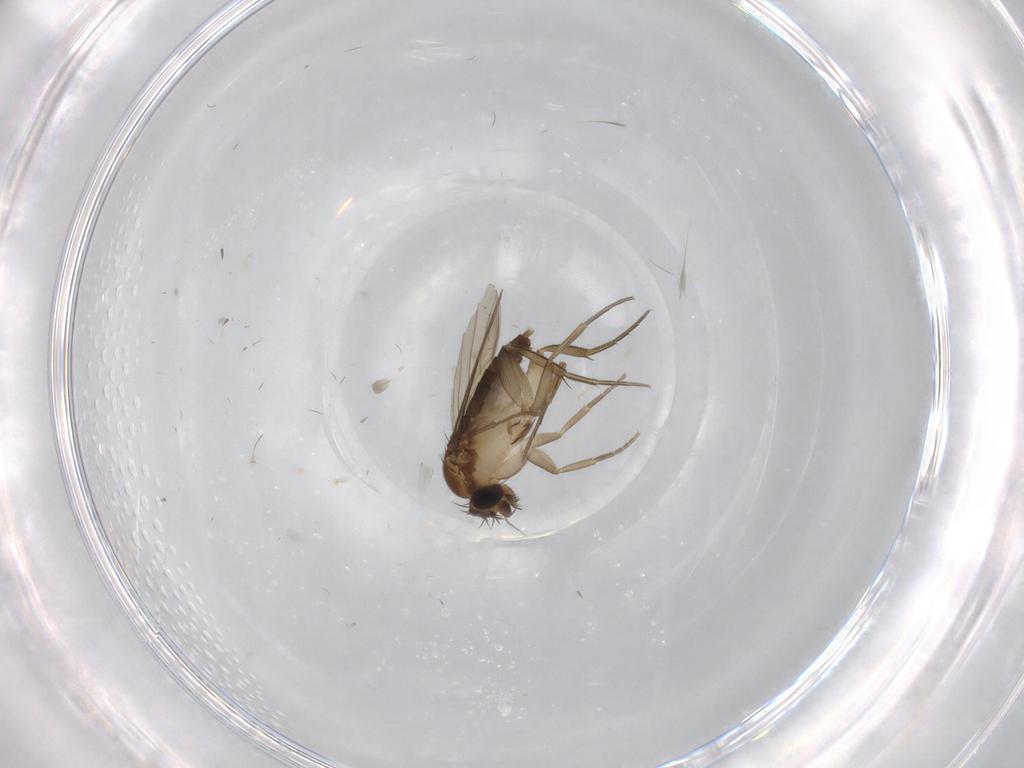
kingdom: Animalia
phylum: Arthropoda
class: Insecta
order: Diptera
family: Phoridae
